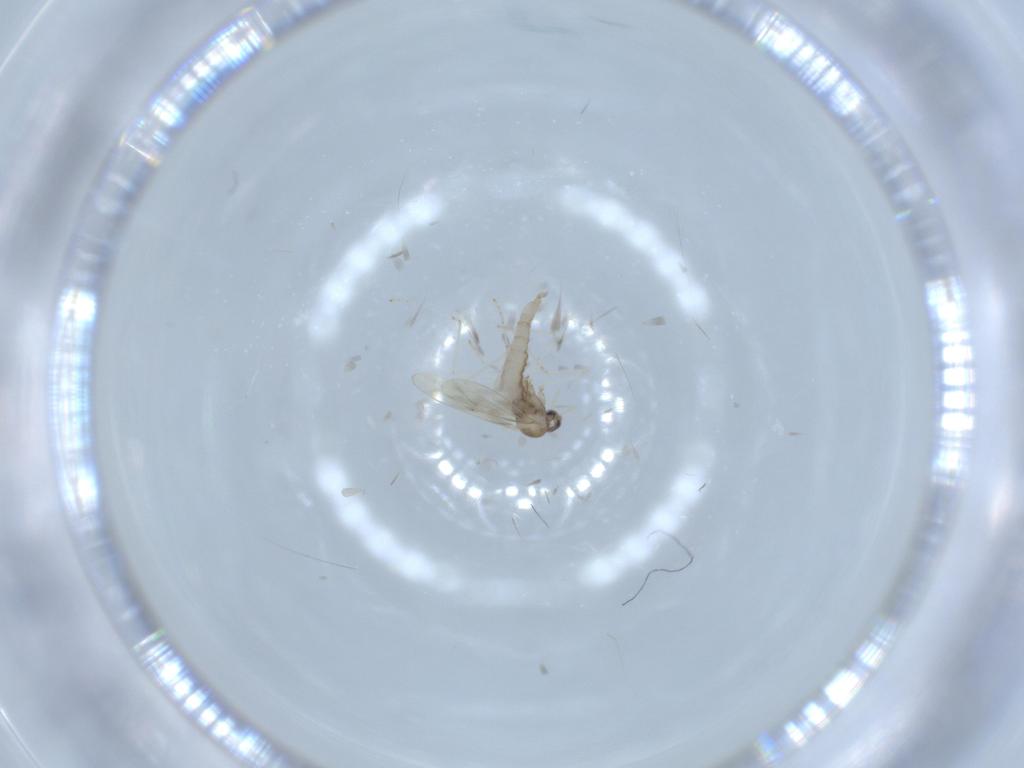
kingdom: Animalia
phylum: Arthropoda
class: Insecta
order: Diptera
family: Cecidomyiidae
